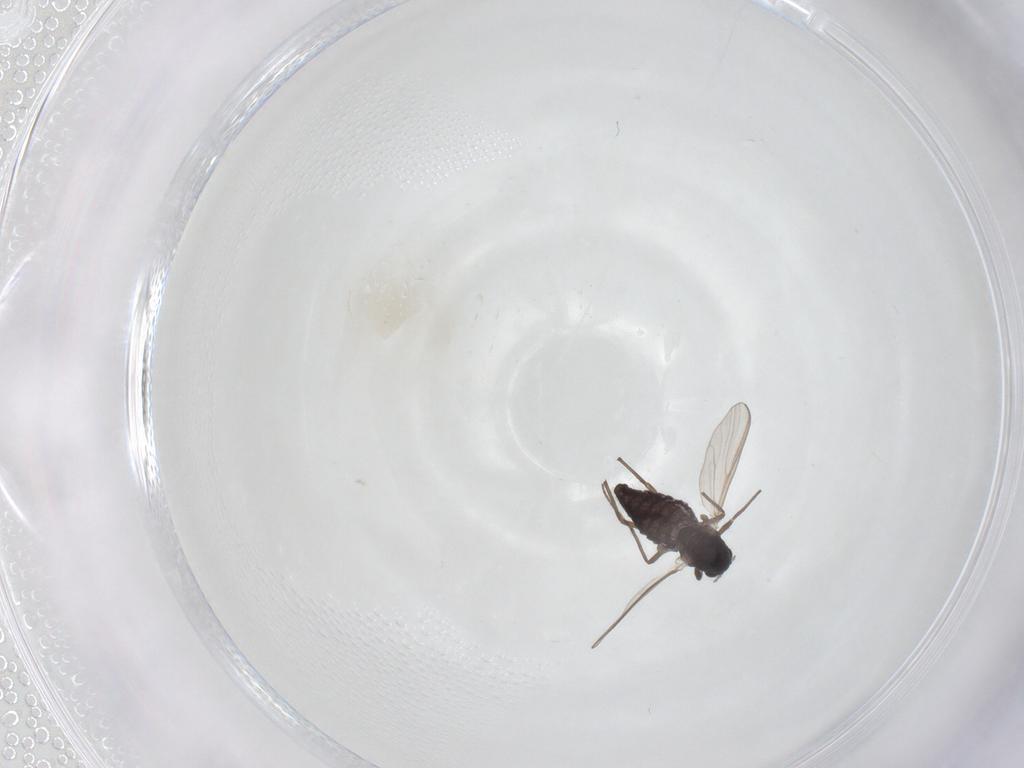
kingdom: Animalia
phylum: Arthropoda
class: Insecta
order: Diptera
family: Chironomidae
